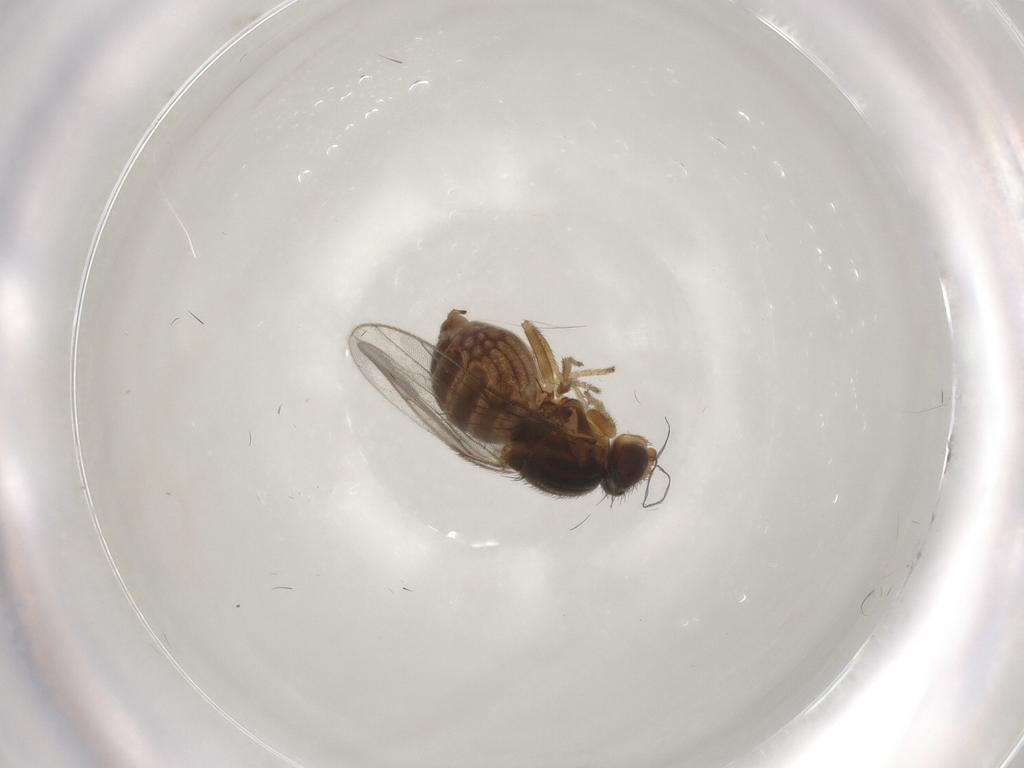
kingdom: Animalia
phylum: Arthropoda
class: Insecta
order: Diptera
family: Chloropidae
